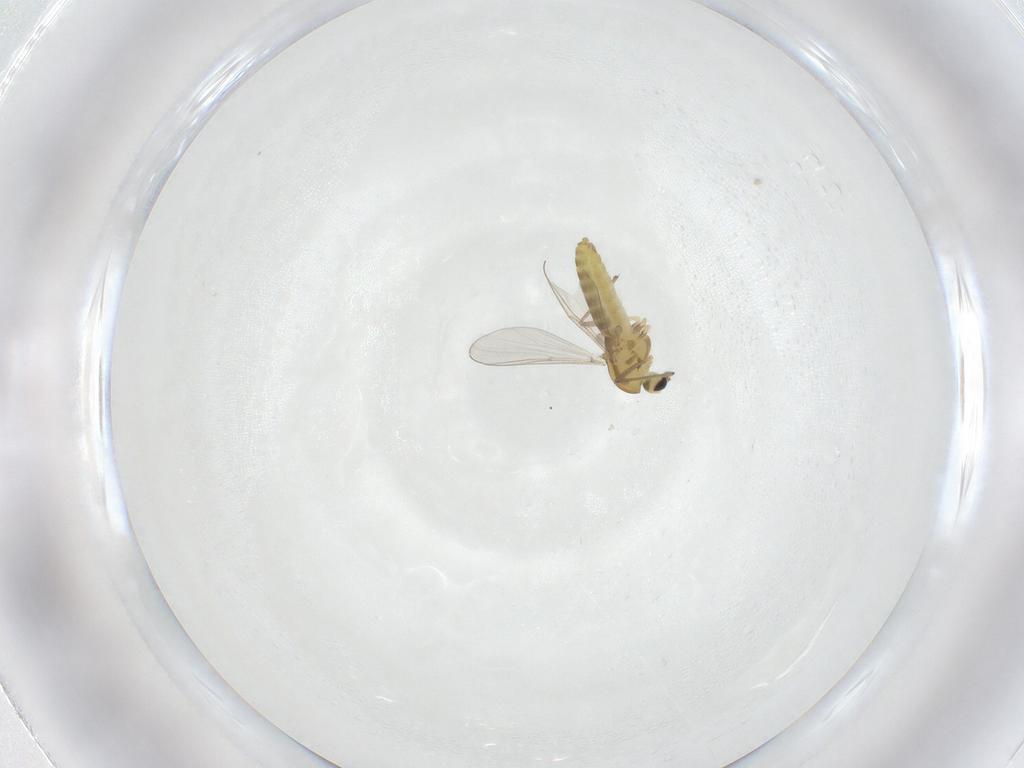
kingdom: Animalia
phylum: Arthropoda
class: Insecta
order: Diptera
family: Chironomidae
